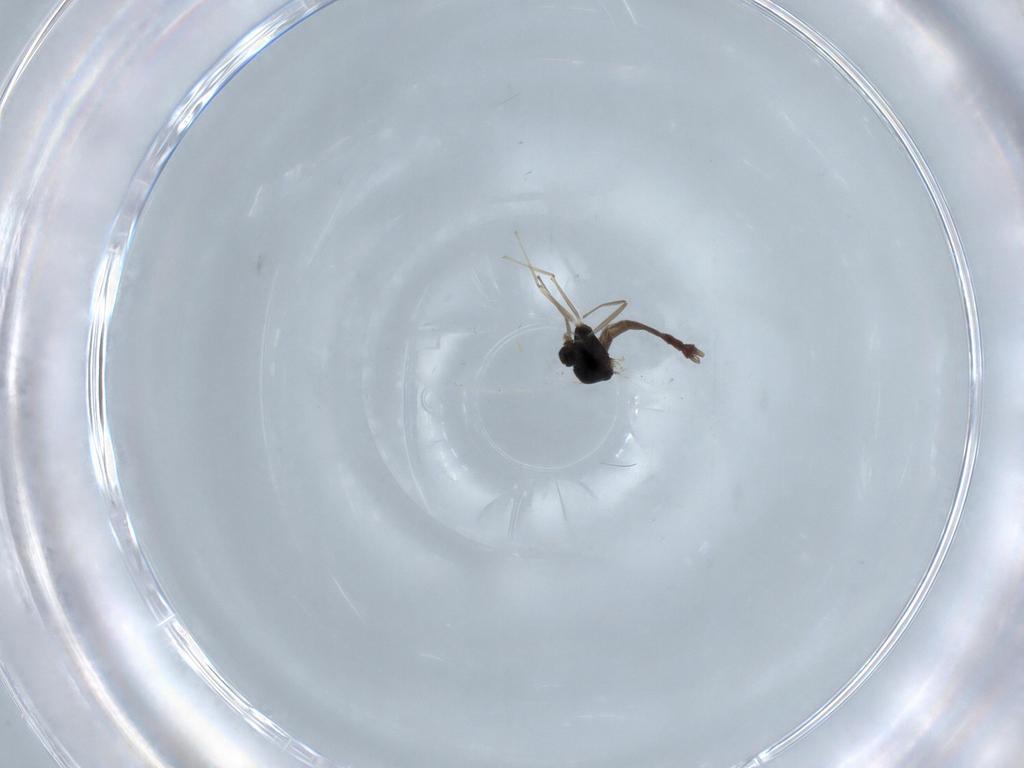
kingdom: Animalia
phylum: Arthropoda
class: Insecta
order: Diptera
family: Chironomidae
